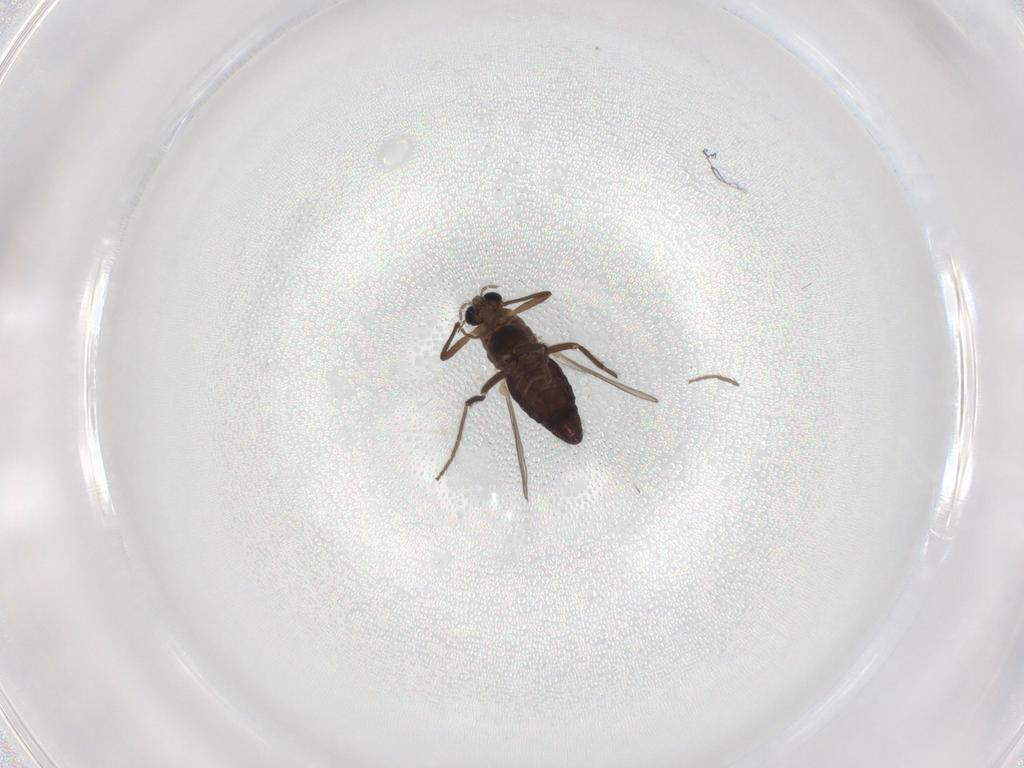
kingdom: Animalia
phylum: Arthropoda
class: Insecta
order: Diptera
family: Chironomidae
